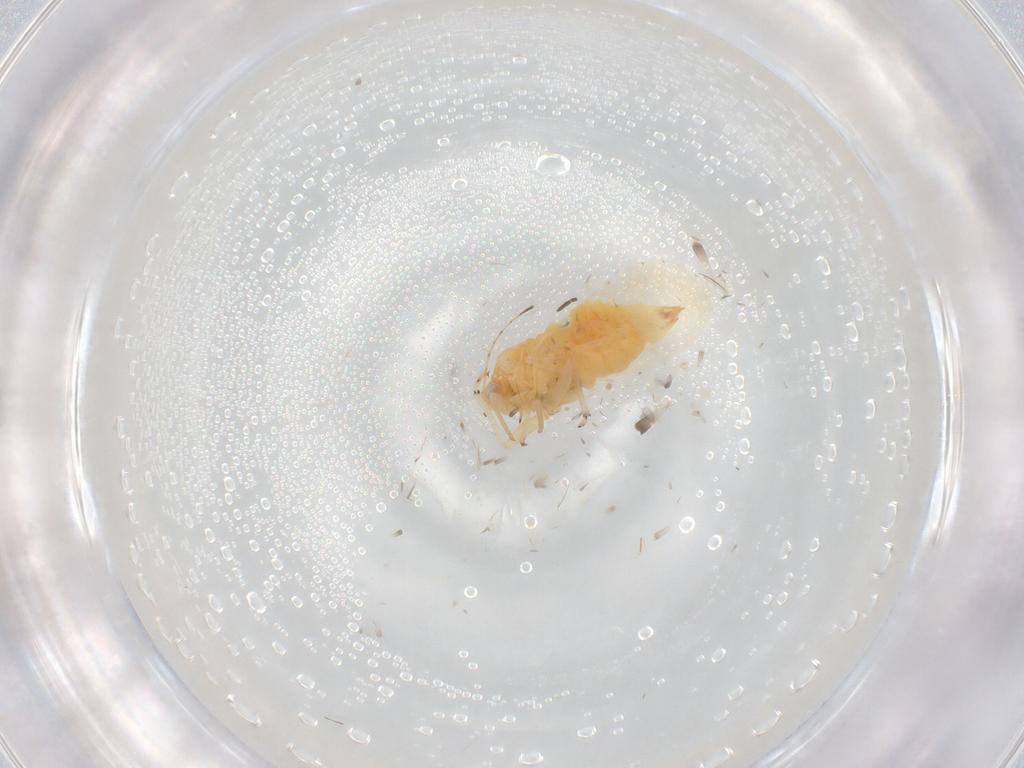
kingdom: Animalia
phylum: Arthropoda
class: Insecta
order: Hemiptera
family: Psyllidae
